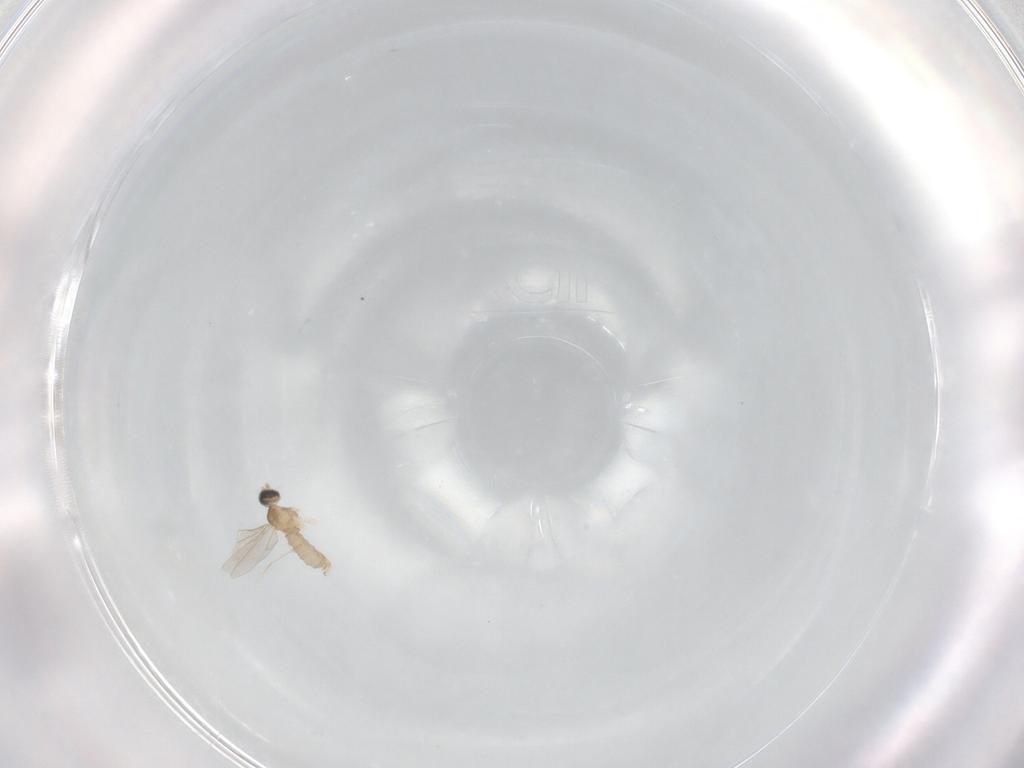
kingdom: Animalia
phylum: Arthropoda
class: Insecta
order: Diptera
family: Cecidomyiidae
